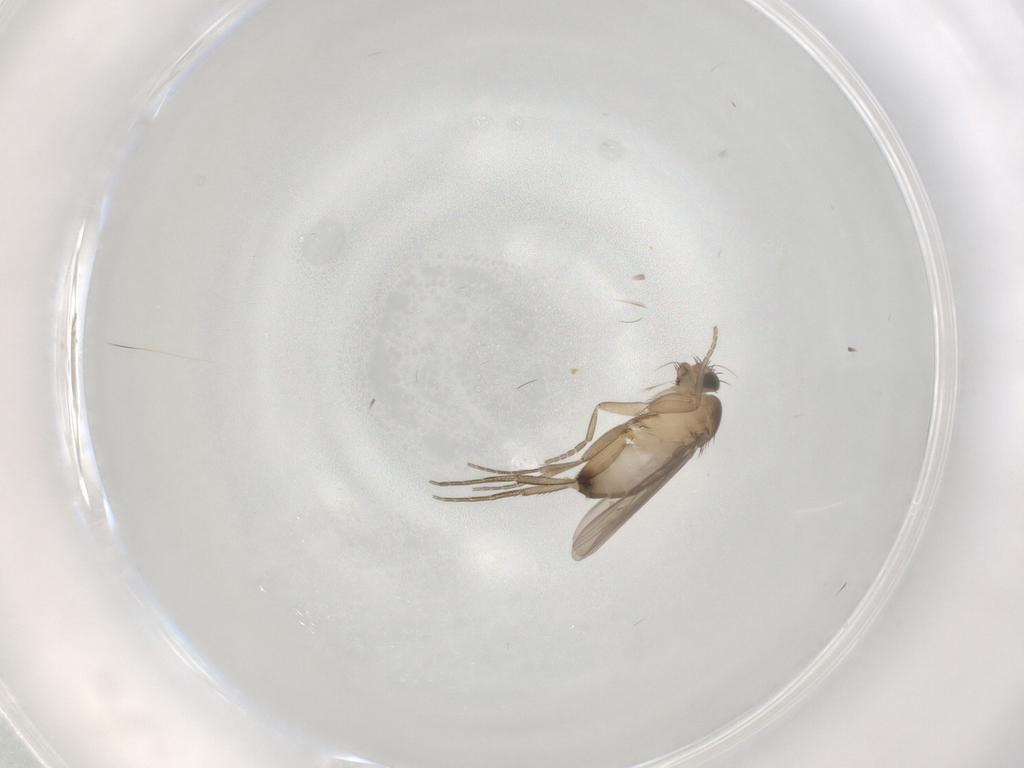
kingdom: Animalia
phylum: Arthropoda
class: Insecta
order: Diptera
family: Phoridae
